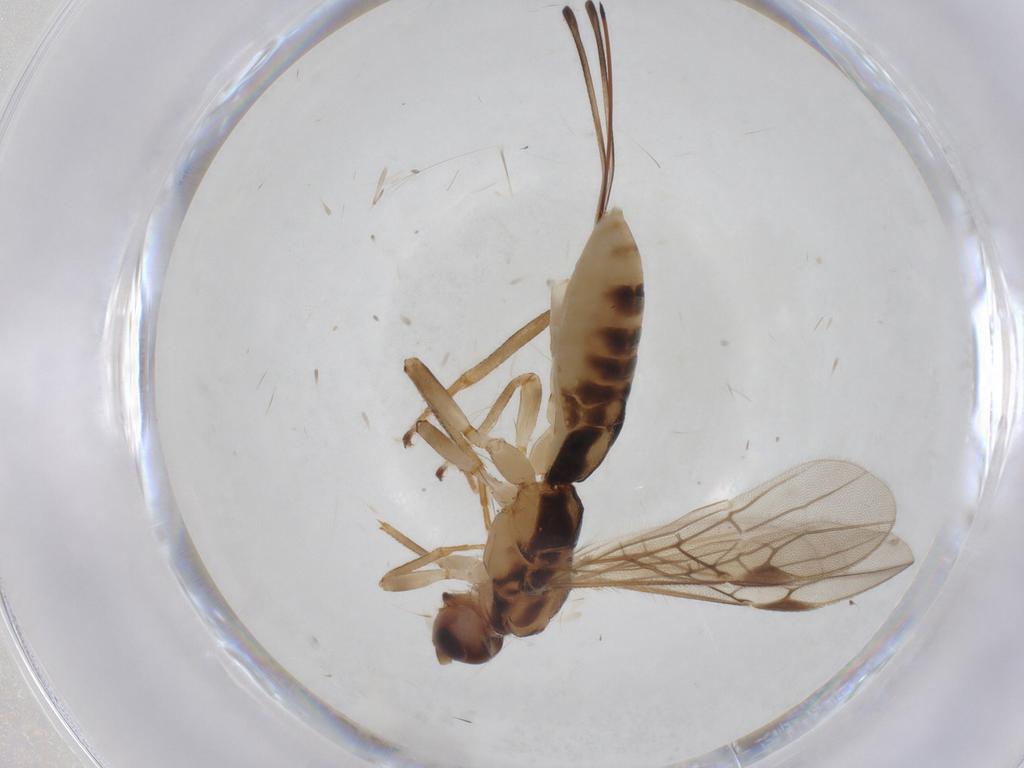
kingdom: Animalia
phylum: Arthropoda
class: Insecta
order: Hymenoptera
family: Braconidae
